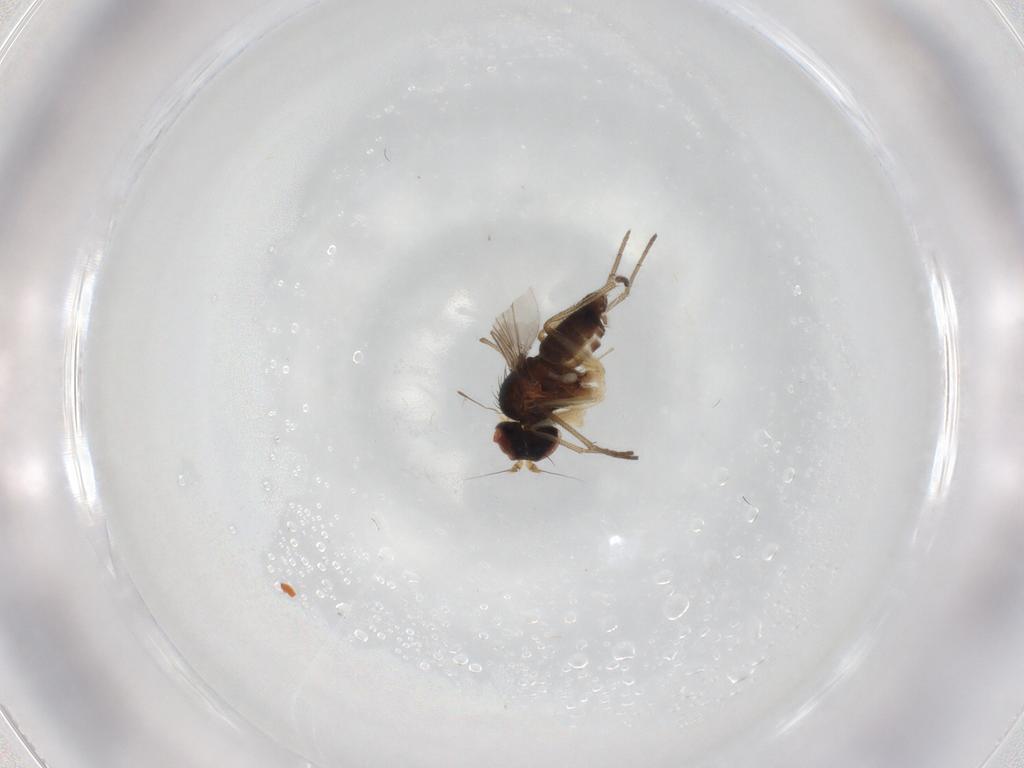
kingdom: Animalia
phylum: Arthropoda
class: Insecta
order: Diptera
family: Dolichopodidae
